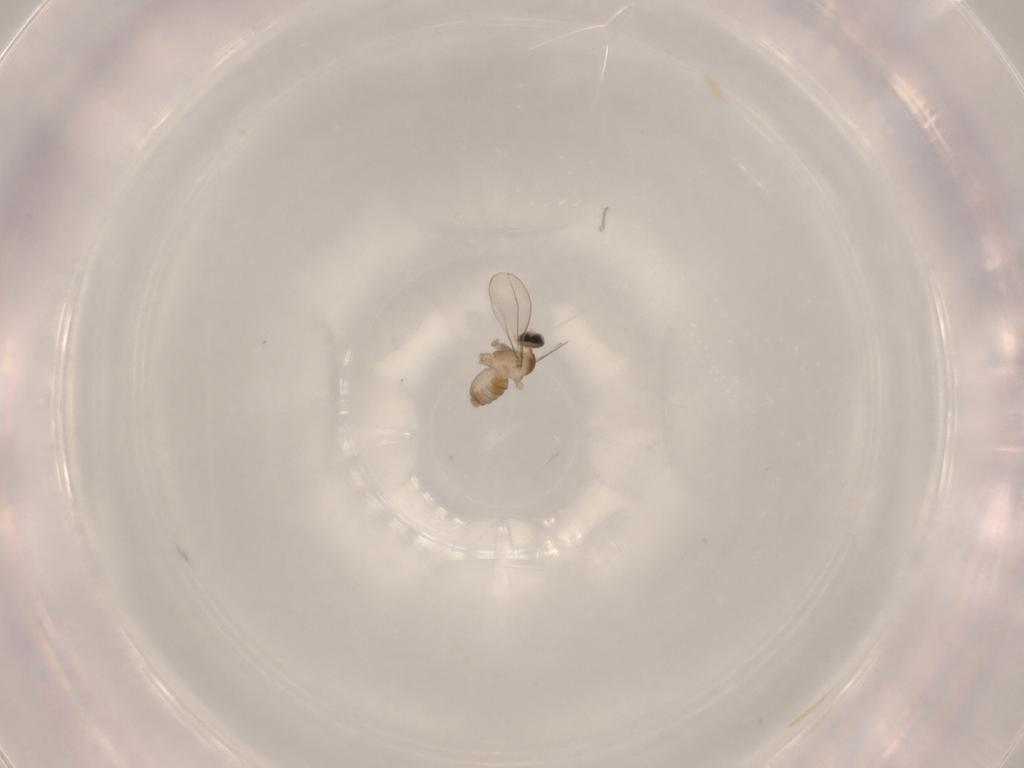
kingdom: Animalia
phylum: Arthropoda
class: Insecta
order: Diptera
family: Cecidomyiidae
